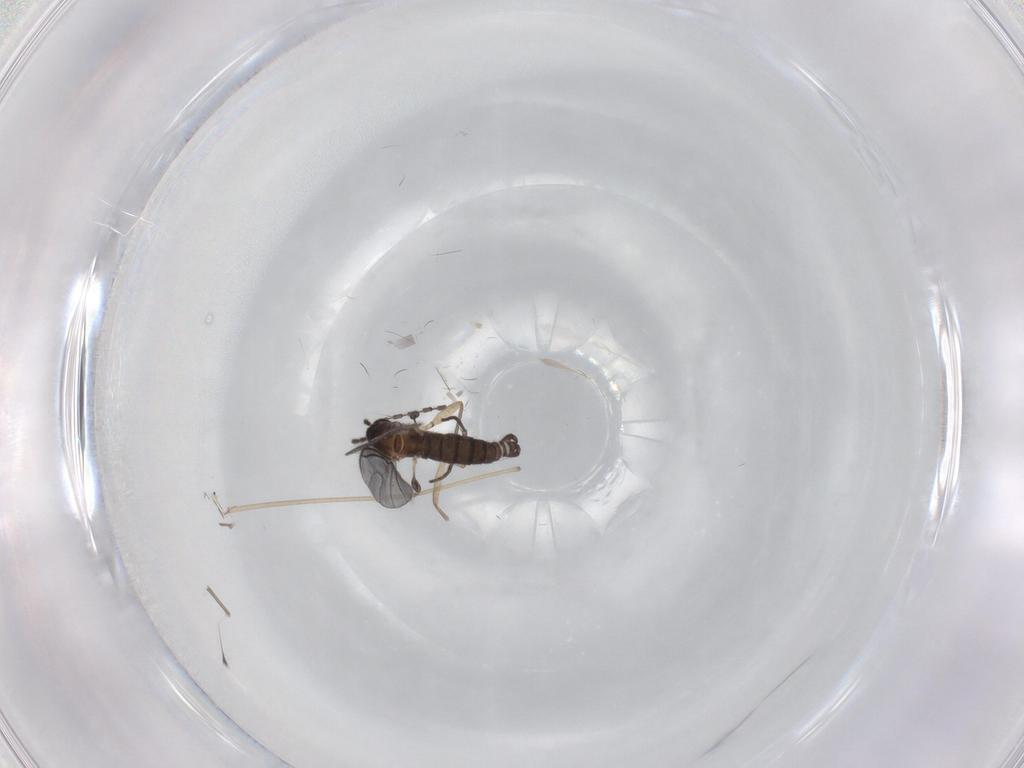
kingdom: Animalia
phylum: Arthropoda
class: Insecta
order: Diptera
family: Sciaridae
